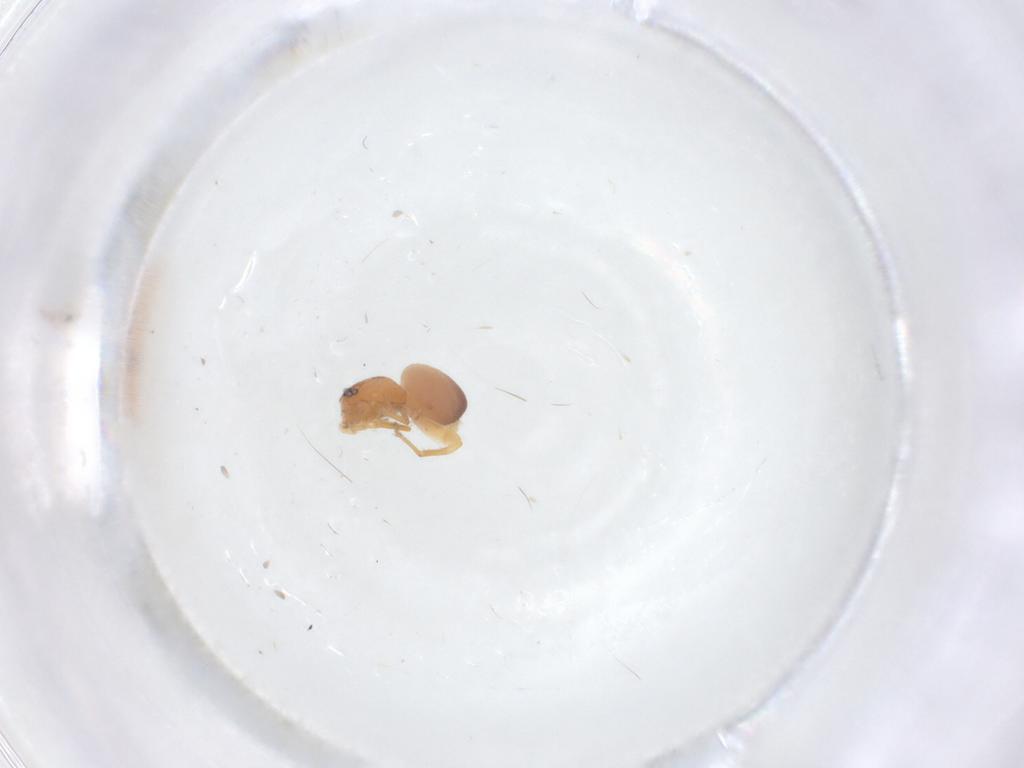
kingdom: Animalia
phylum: Arthropoda
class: Arachnida
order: Araneae
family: Idiopidae
